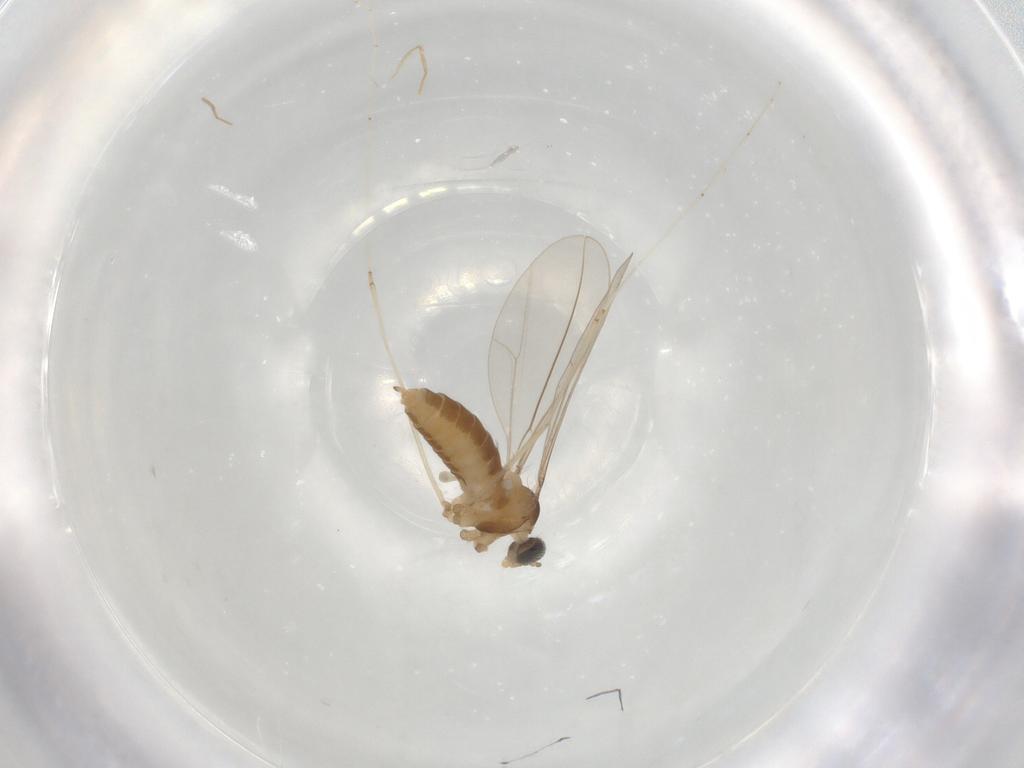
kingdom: Animalia
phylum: Arthropoda
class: Insecta
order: Diptera
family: Cecidomyiidae
